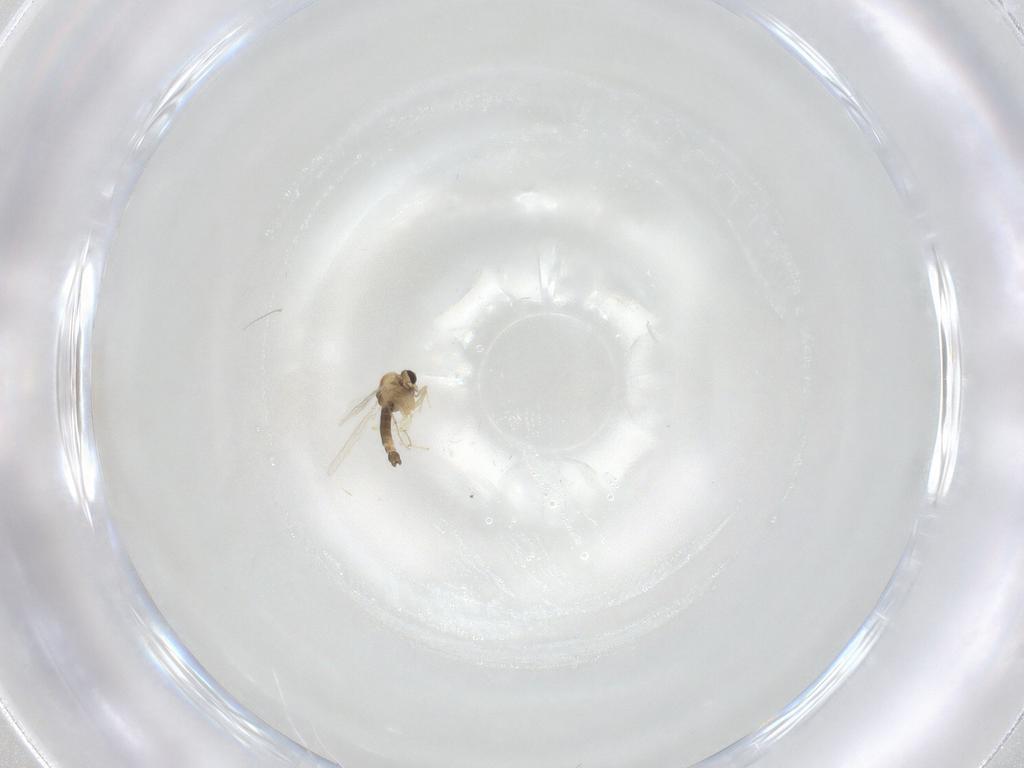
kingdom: Animalia
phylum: Arthropoda
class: Insecta
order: Diptera
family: Chironomidae
